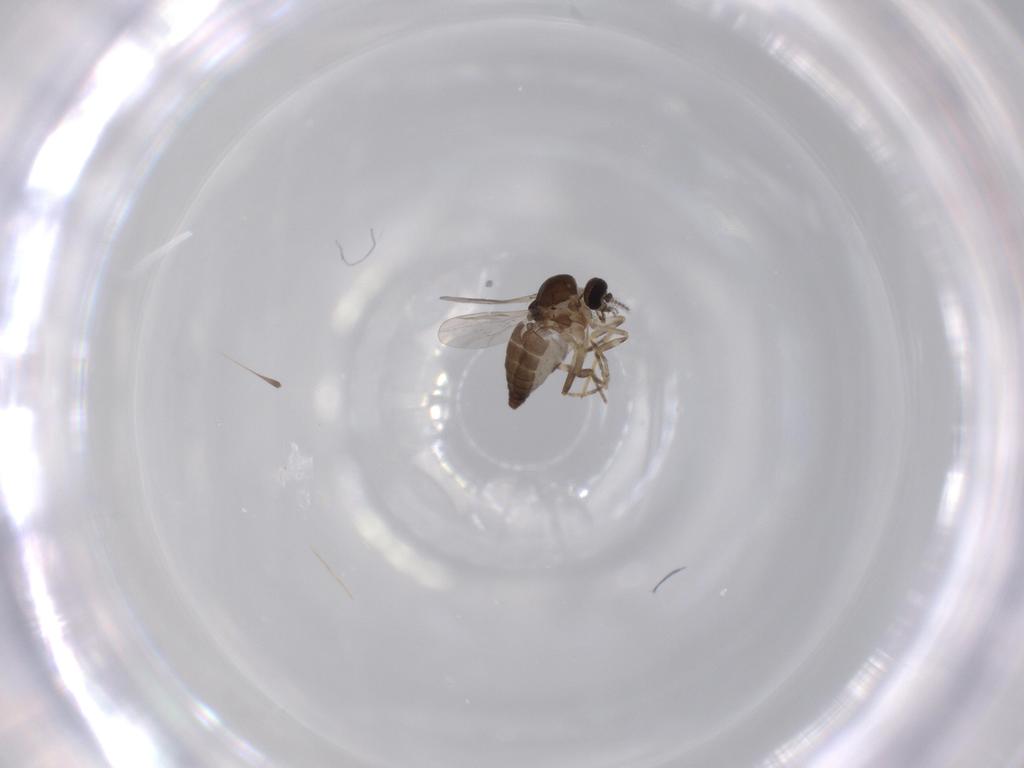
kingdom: Animalia
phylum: Arthropoda
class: Insecta
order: Diptera
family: Ceratopogonidae
